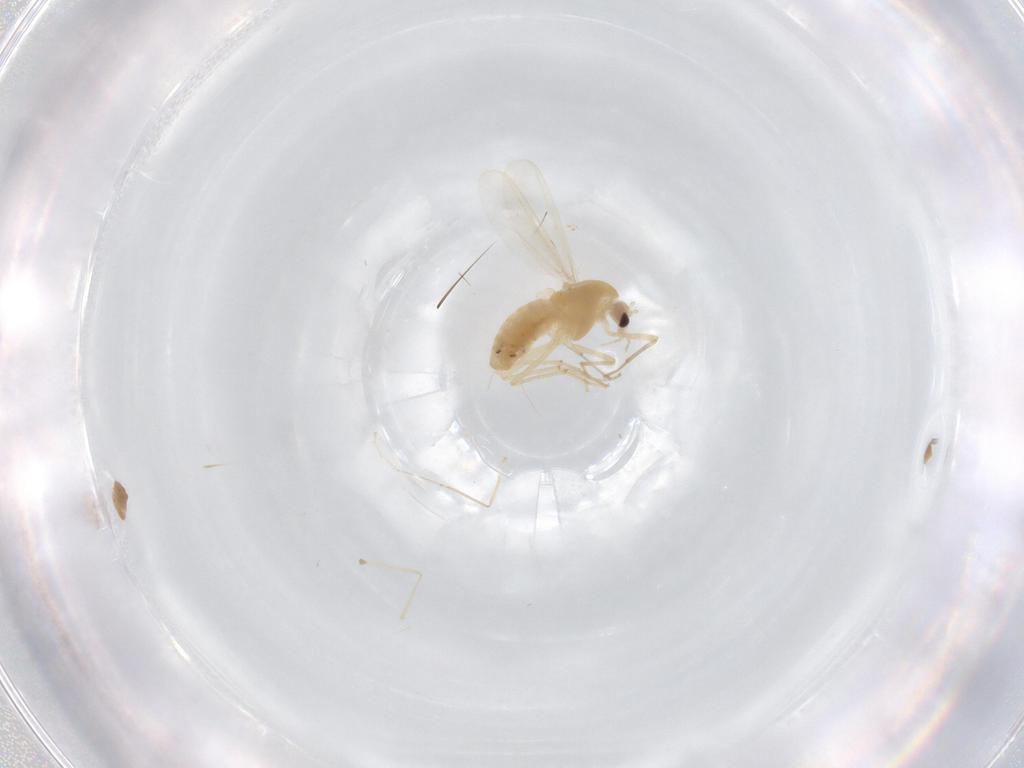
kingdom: Animalia
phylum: Arthropoda
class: Insecta
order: Diptera
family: Chironomidae
